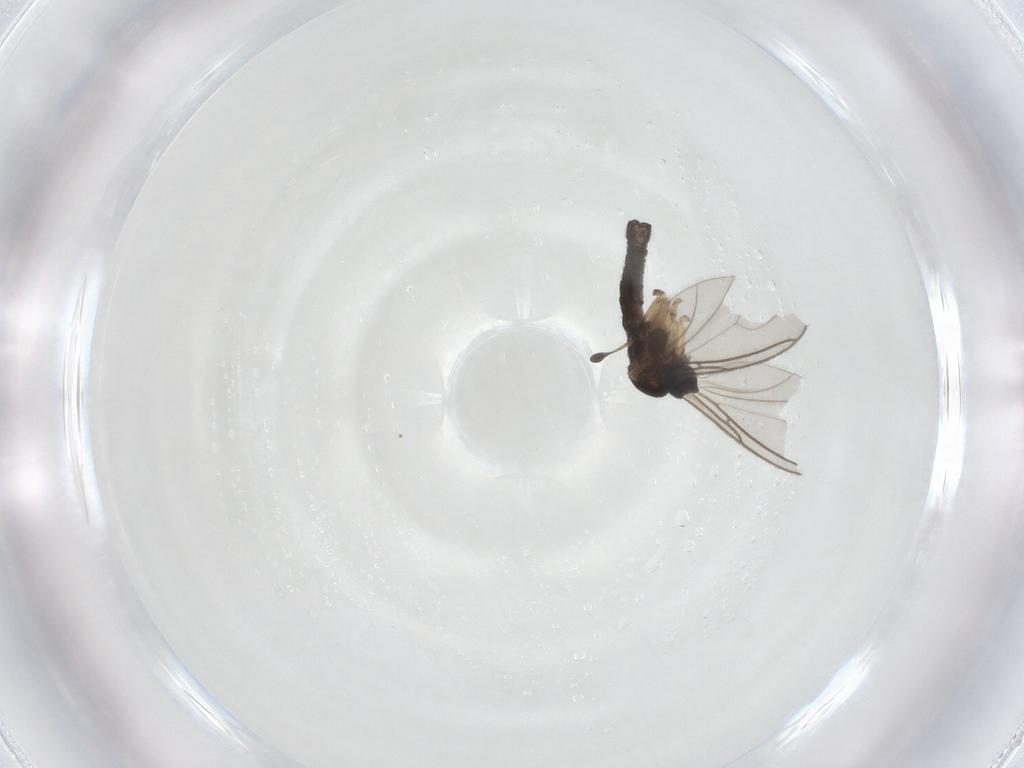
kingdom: Animalia
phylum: Arthropoda
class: Insecta
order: Diptera
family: Sciaridae
